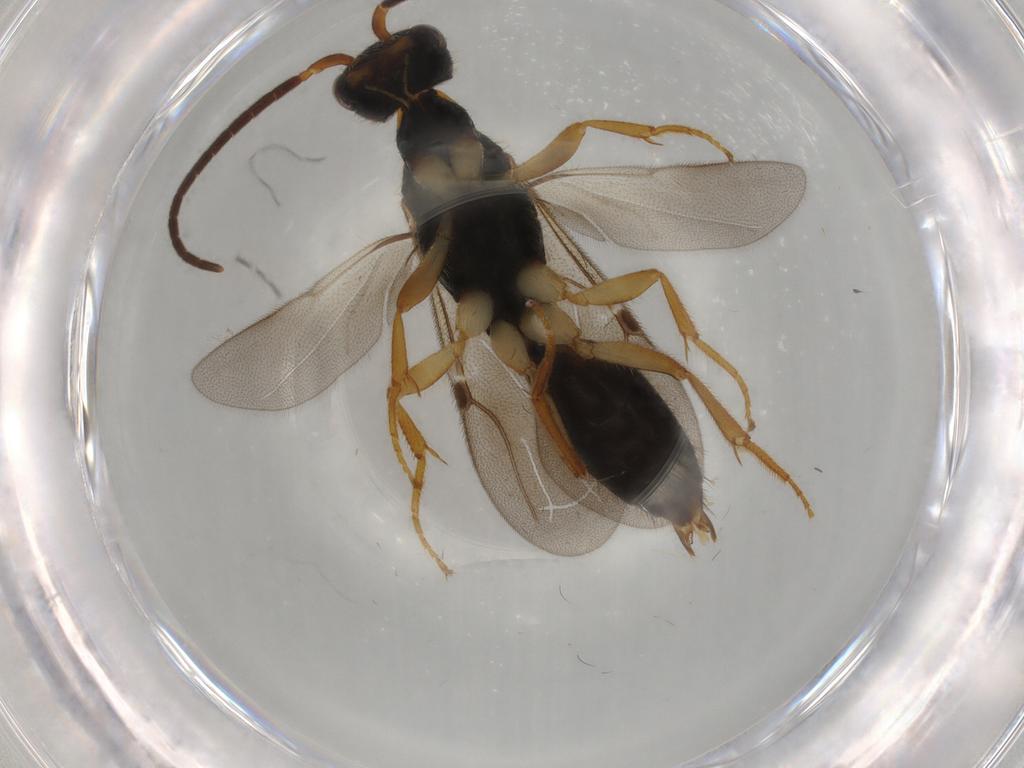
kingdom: Animalia
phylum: Arthropoda
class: Insecta
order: Hymenoptera
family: Bethylidae
